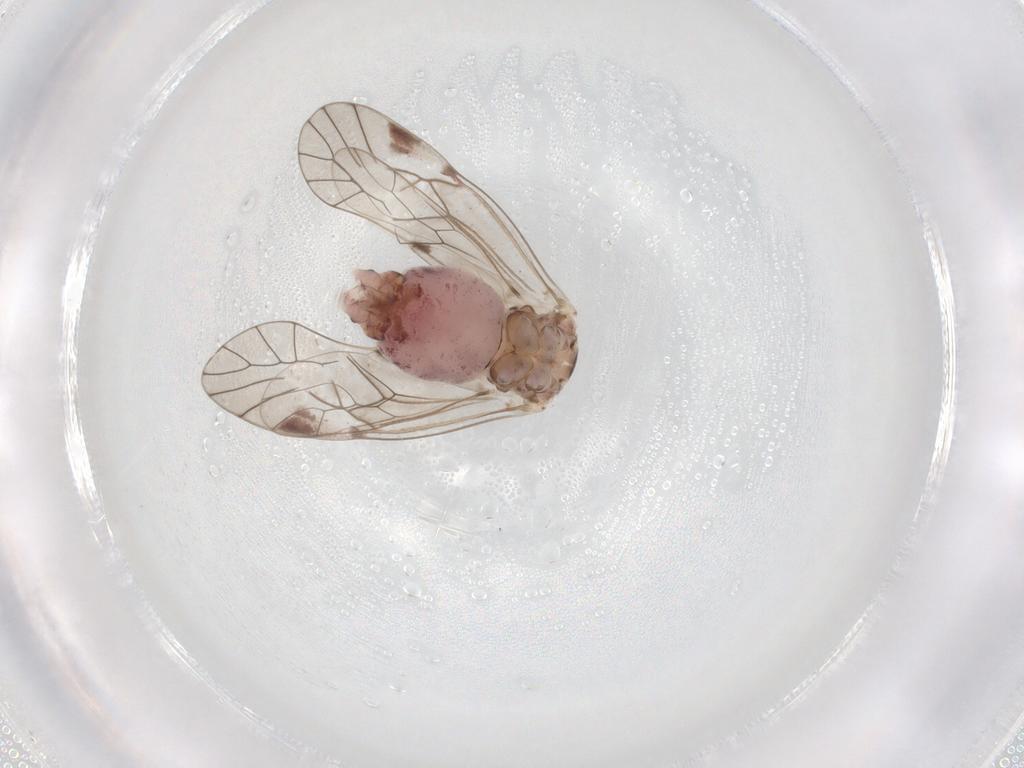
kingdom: Animalia
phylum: Arthropoda
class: Insecta
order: Psocodea
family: Psocidae
